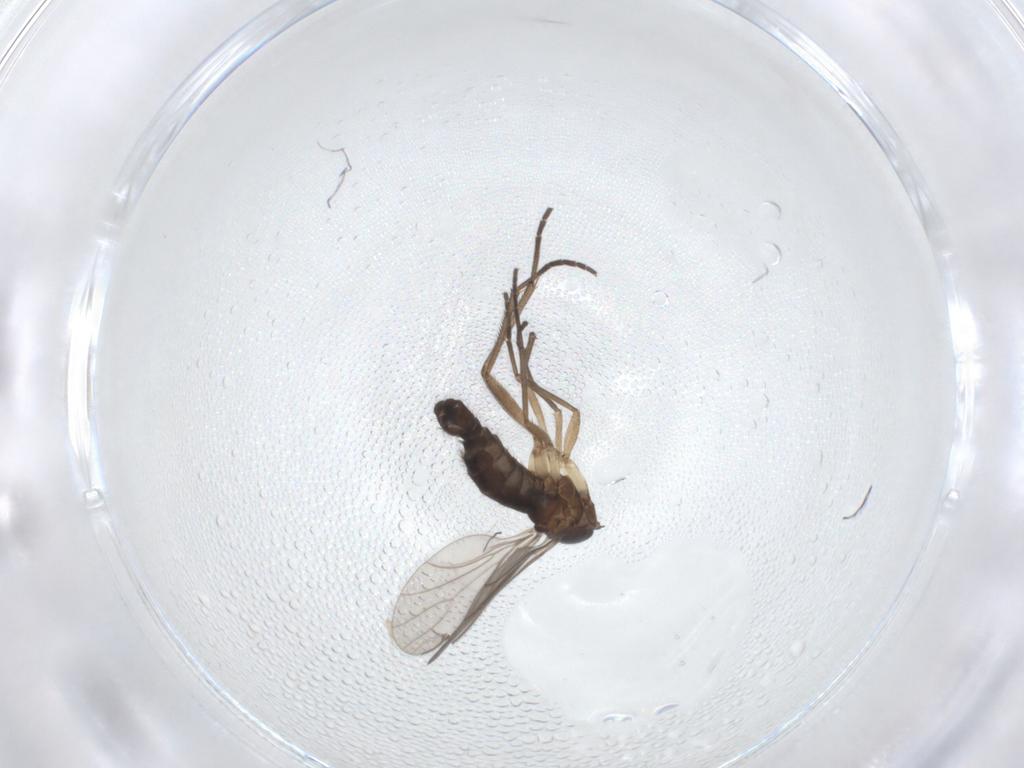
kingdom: Animalia
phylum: Arthropoda
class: Insecta
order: Diptera
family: Sciaridae
